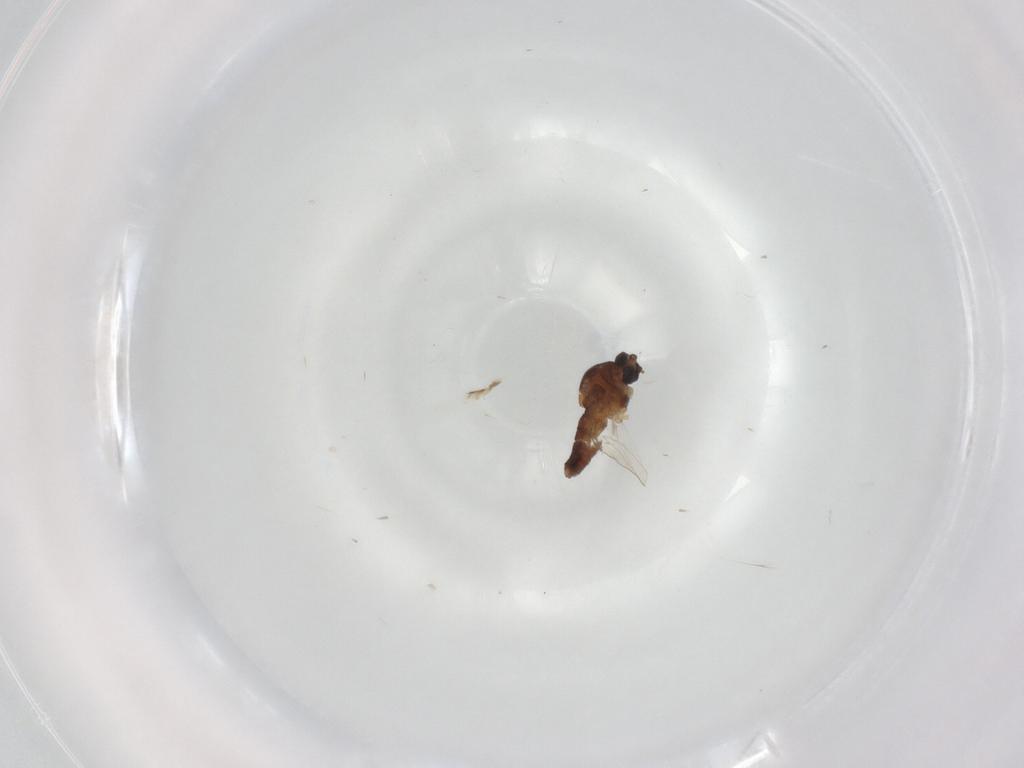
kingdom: Animalia
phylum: Arthropoda
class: Insecta
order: Diptera
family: Ceratopogonidae
